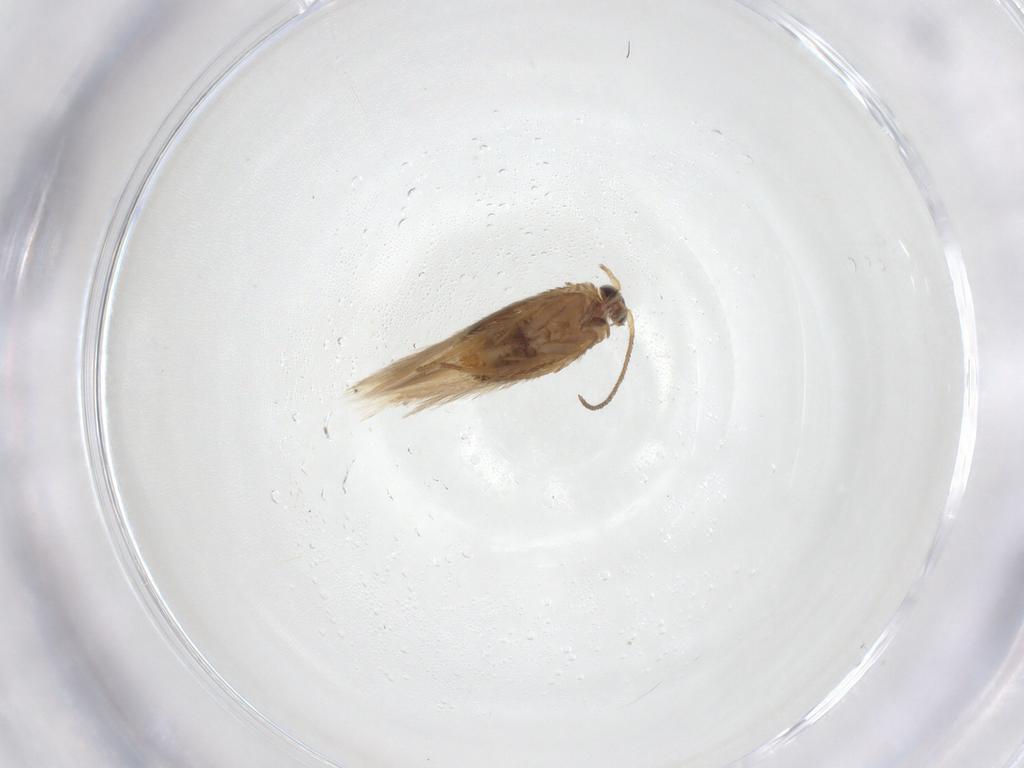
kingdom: Animalia
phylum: Arthropoda
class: Insecta
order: Lepidoptera
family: Nepticulidae
